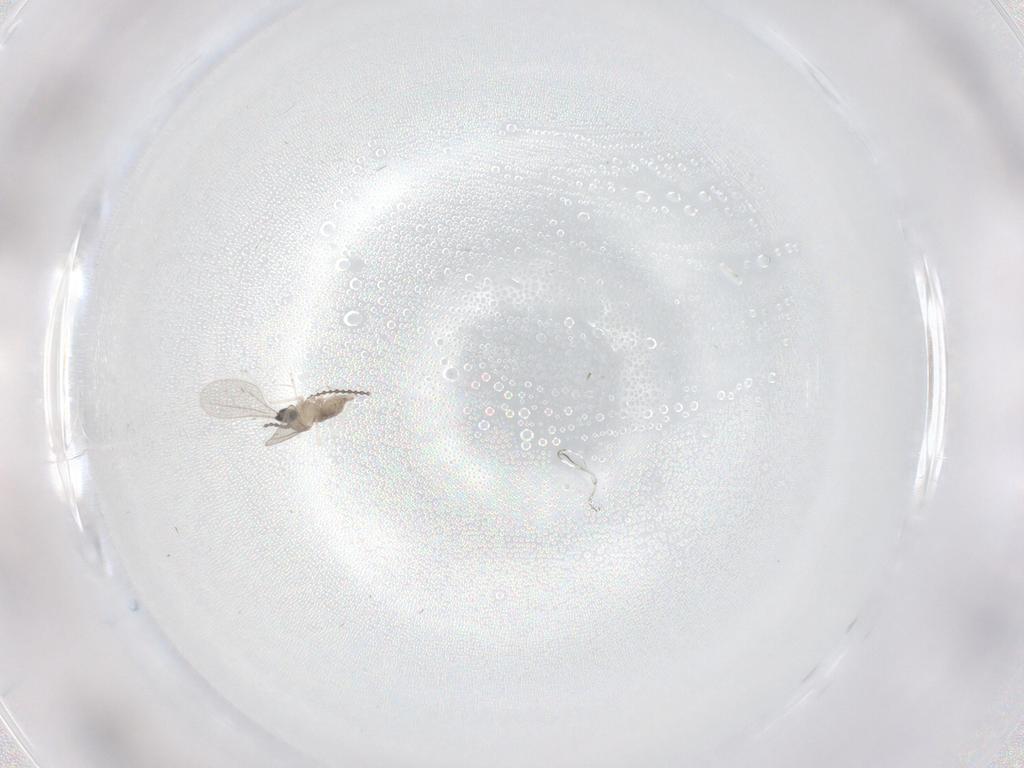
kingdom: Animalia
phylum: Arthropoda
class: Insecta
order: Diptera
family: Cecidomyiidae
